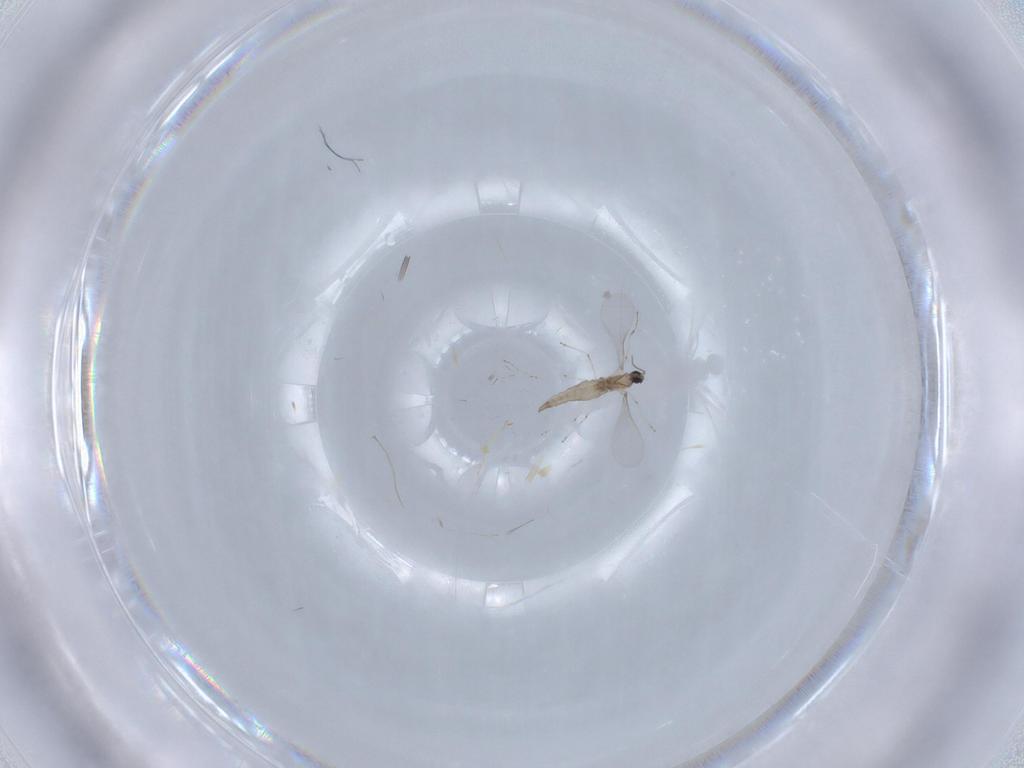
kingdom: Animalia
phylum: Arthropoda
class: Insecta
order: Diptera
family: Cecidomyiidae
